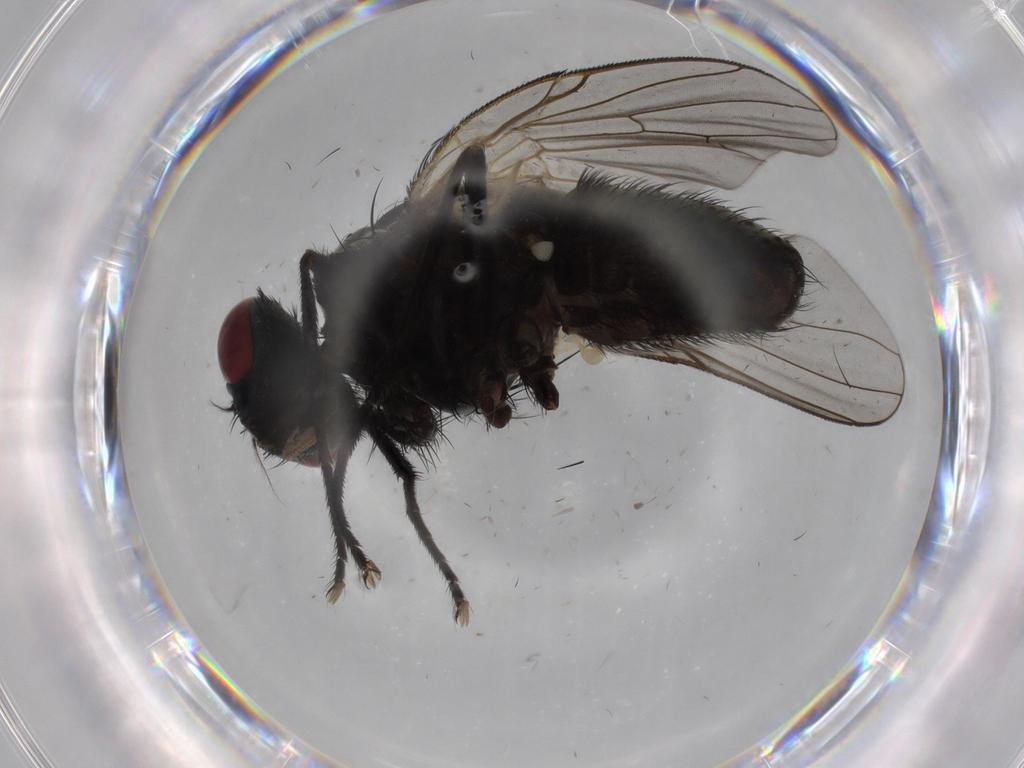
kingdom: Animalia
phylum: Arthropoda
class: Insecta
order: Diptera
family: Muscidae
